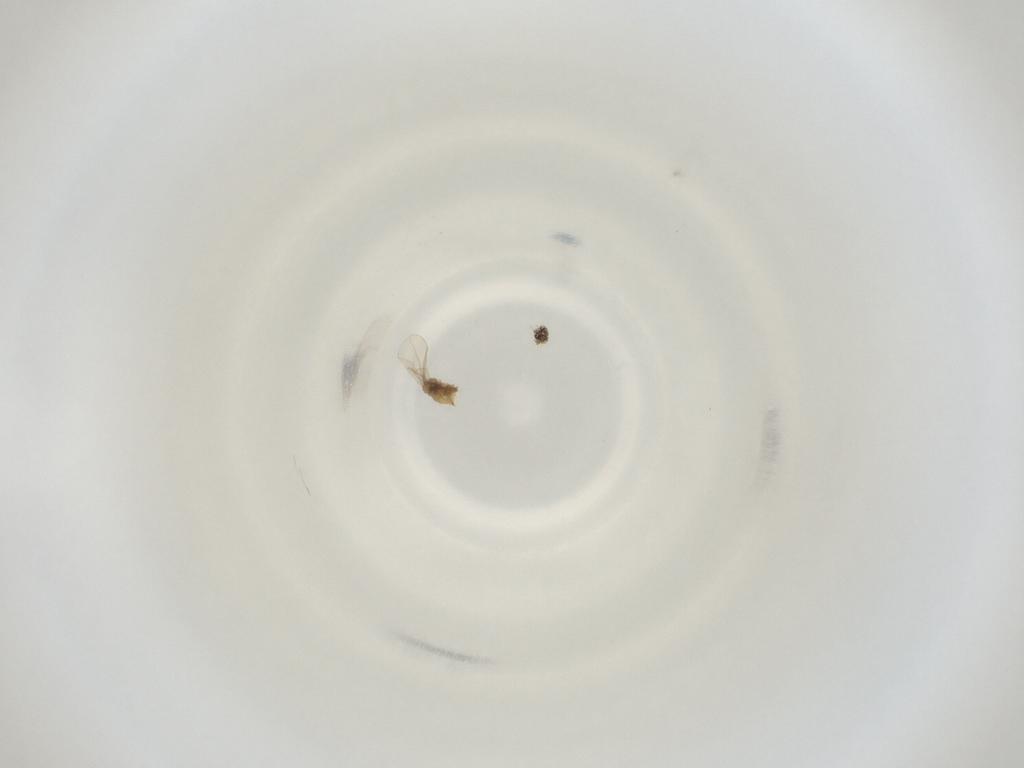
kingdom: Animalia
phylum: Arthropoda
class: Insecta
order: Diptera
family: Cecidomyiidae
